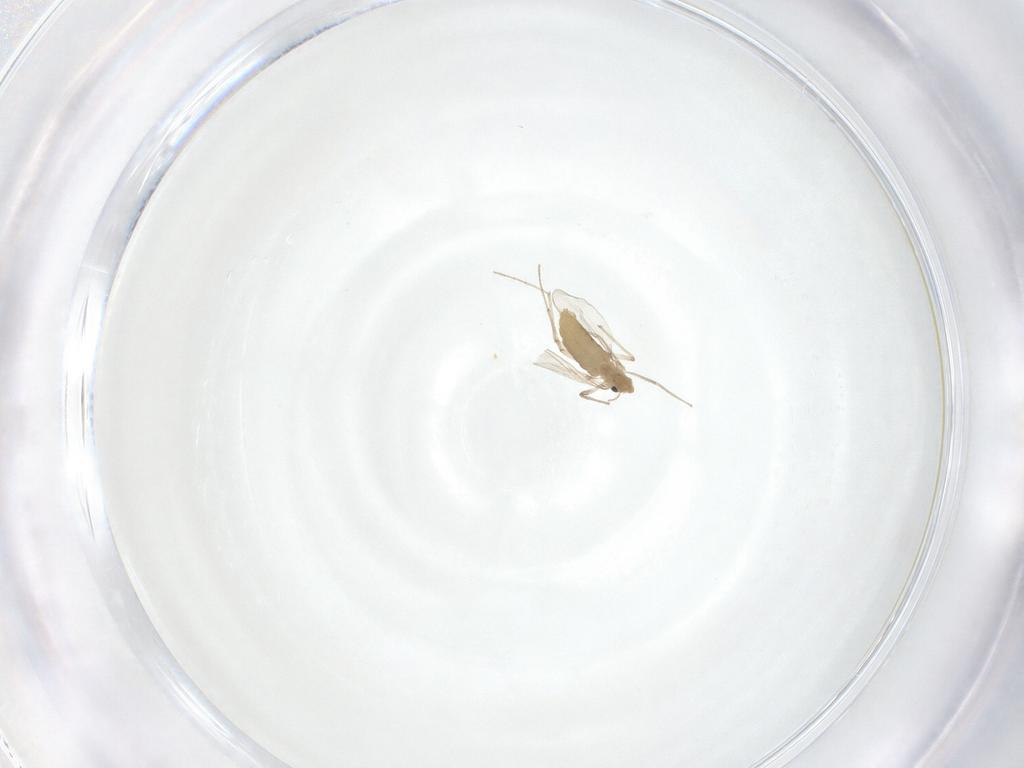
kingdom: Animalia
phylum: Arthropoda
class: Insecta
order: Diptera
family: Chironomidae
